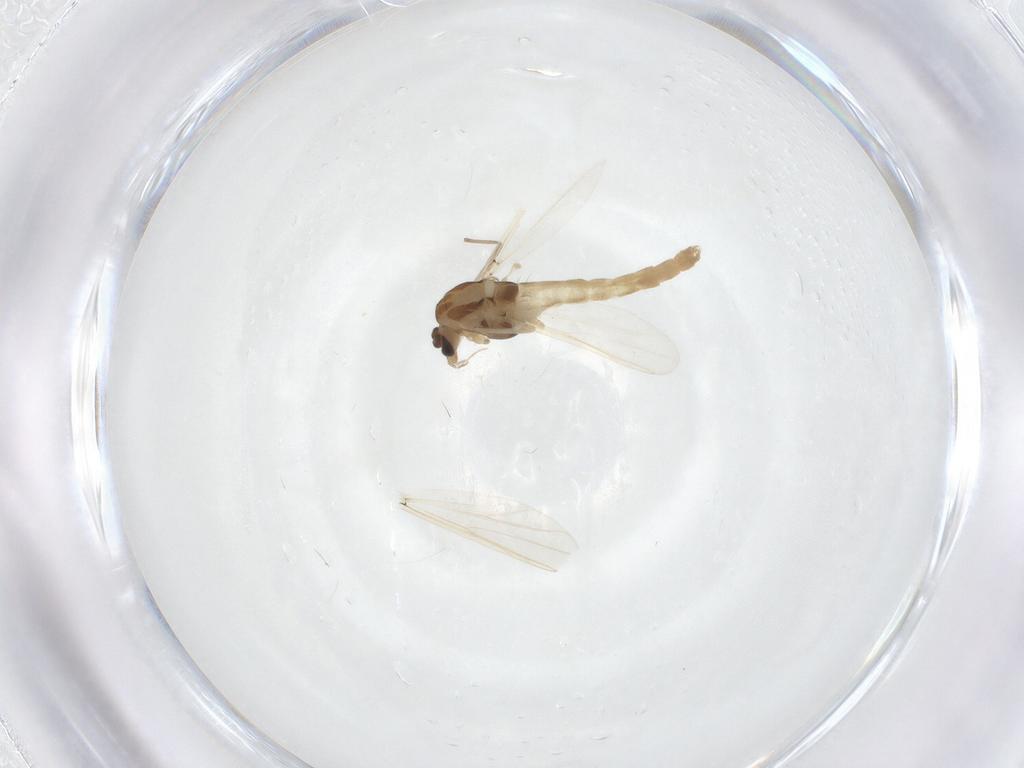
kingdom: Animalia
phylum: Arthropoda
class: Insecta
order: Diptera
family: Chironomidae
